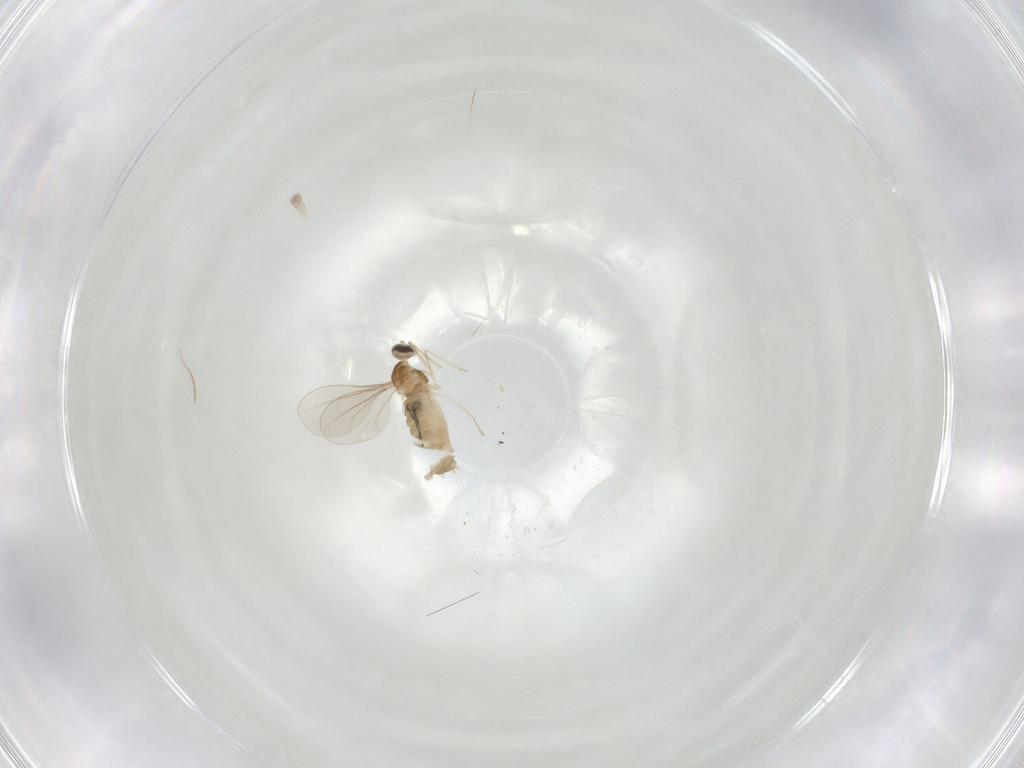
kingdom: Animalia
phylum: Arthropoda
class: Insecta
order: Diptera
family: Cecidomyiidae
